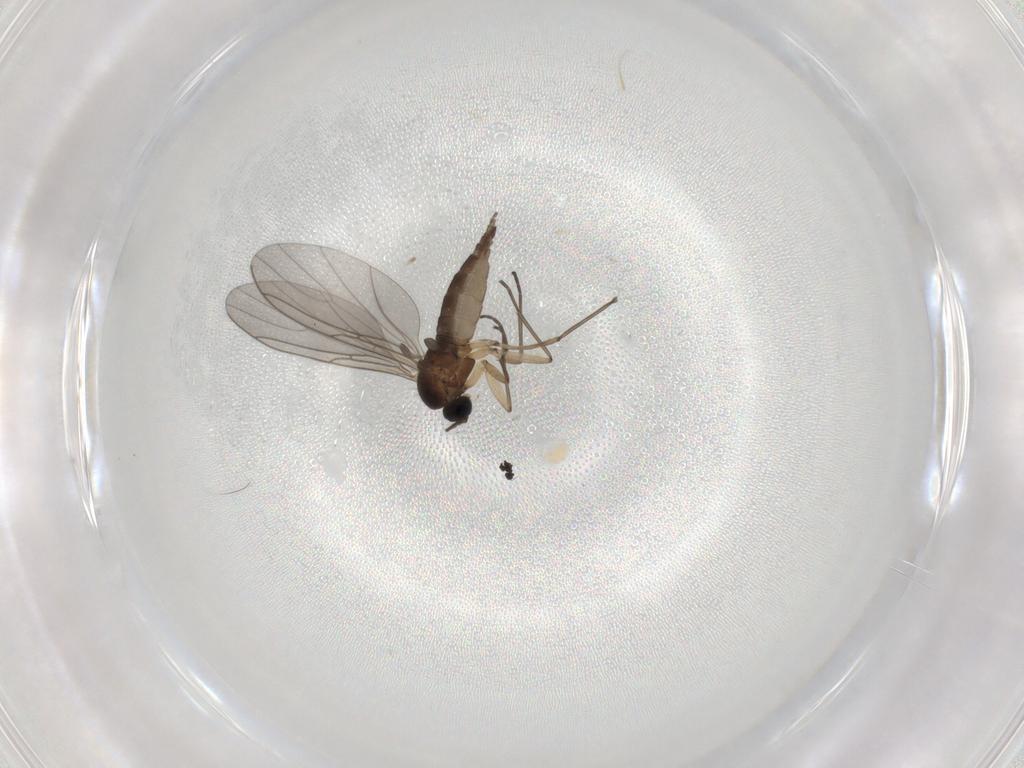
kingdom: Animalia
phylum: Arthropoda
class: Insecta
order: Diptera
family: Sciaridae
